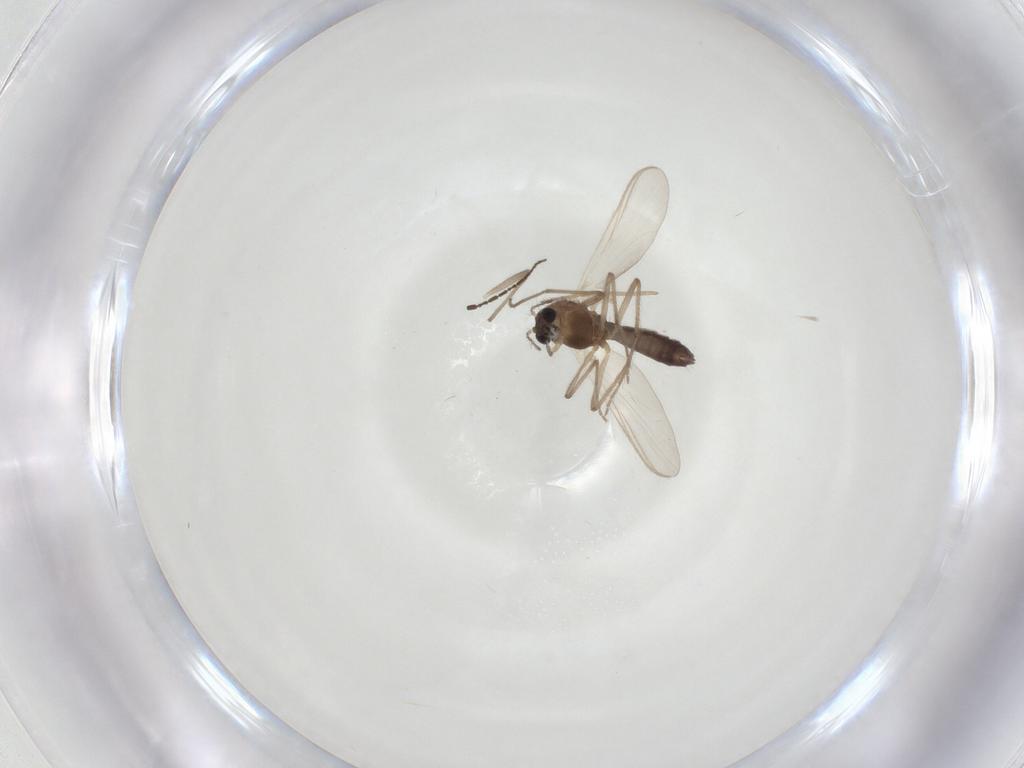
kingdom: Animalia
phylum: Arthropoda
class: Insecta
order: Diptera
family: Chironomidae
